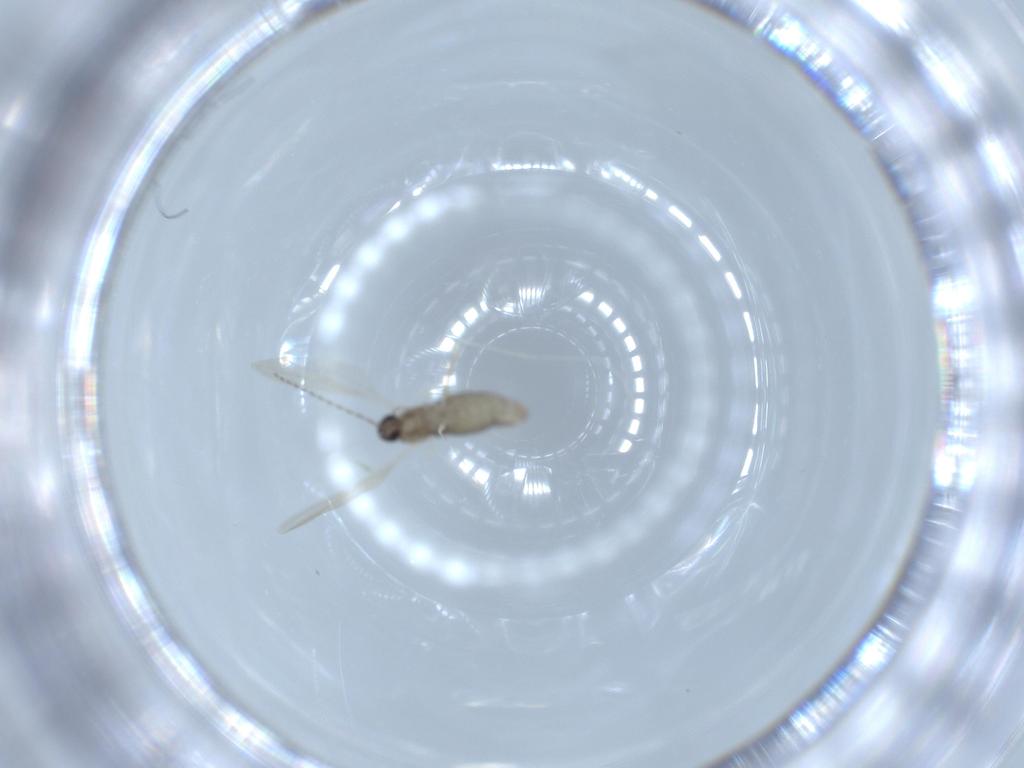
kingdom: Animalia
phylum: Arthropoda
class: Insecta
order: Diptera
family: Cecidomyiidae
